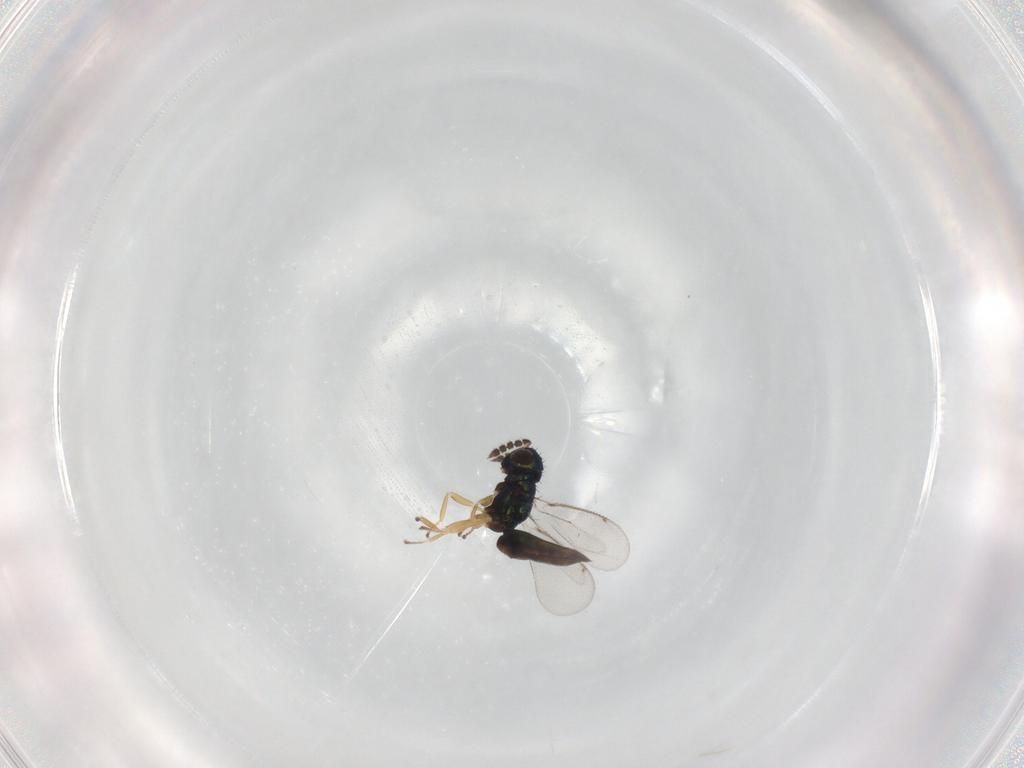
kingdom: Animalia
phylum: Arthropoda
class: Insecta
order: Hymenoptera
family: Eulophidae
